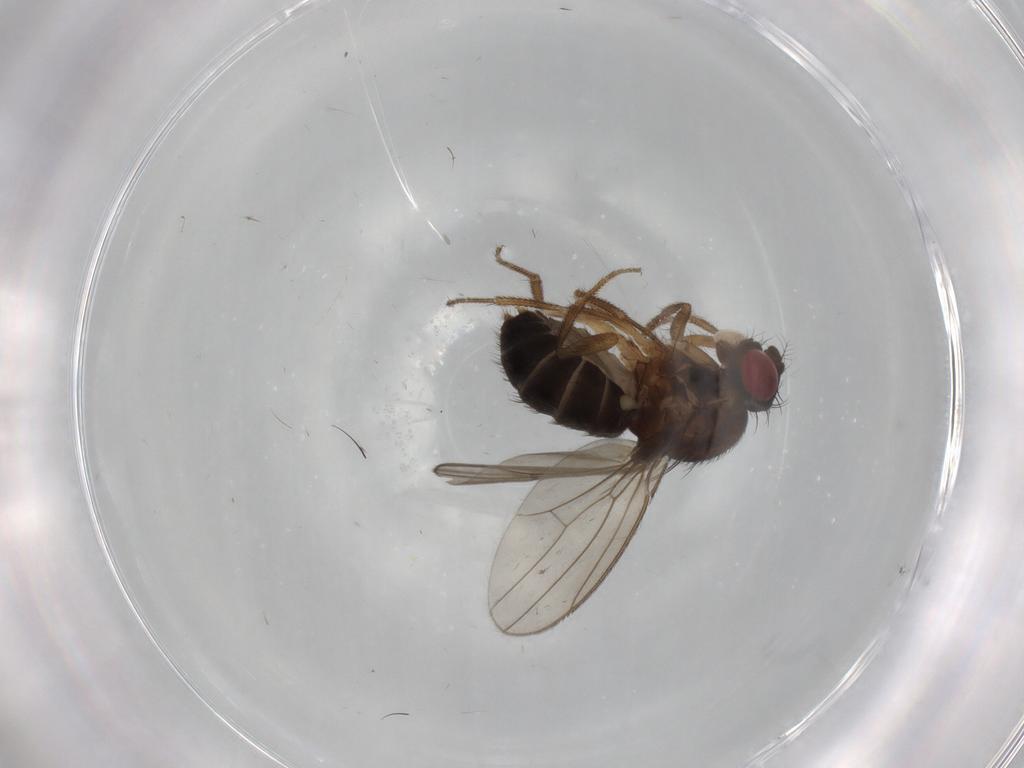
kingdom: Animalia
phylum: Arthropoda
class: Insecta
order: Diptera
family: Drosophilidae
